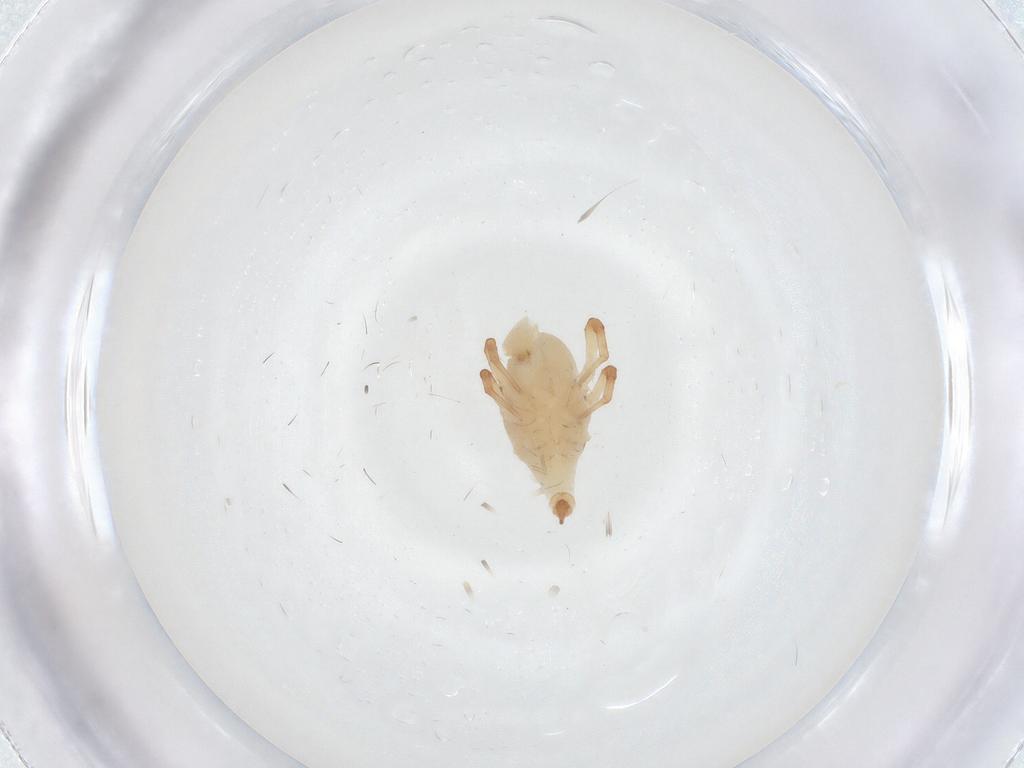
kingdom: Animalia
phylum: Arthropoda
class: Arachnida
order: Trombidiformes
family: Bdellidae
